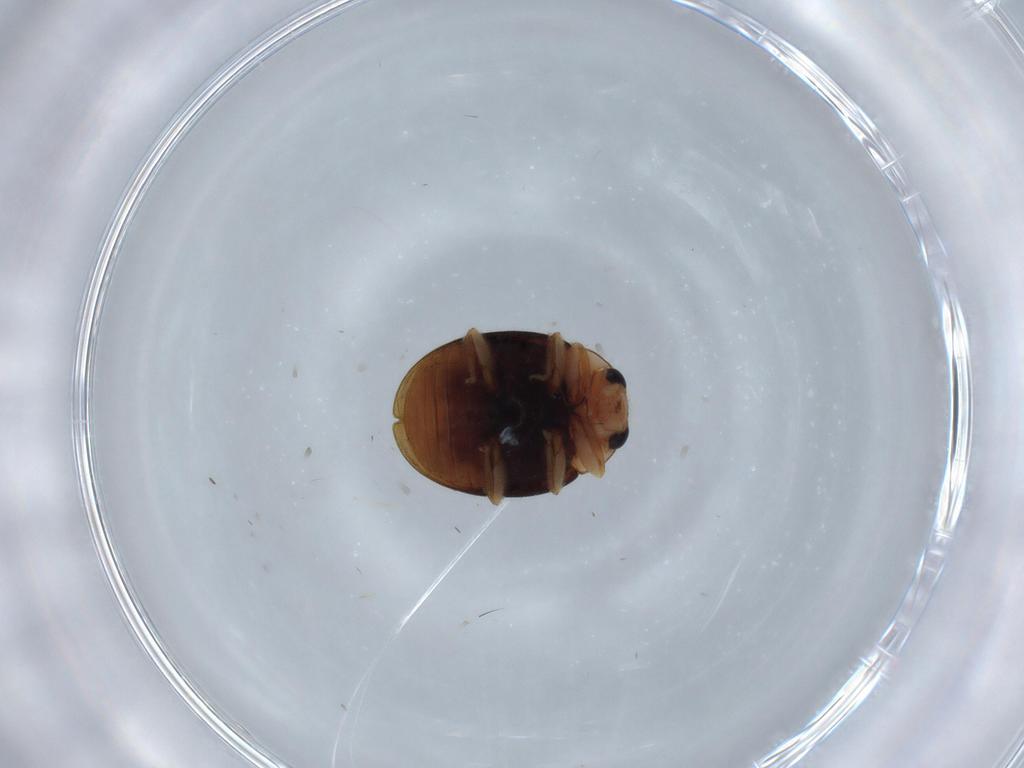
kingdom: Animalia
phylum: Arthropoda
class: Insecta
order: Coleoptera
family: Coccinellidae
